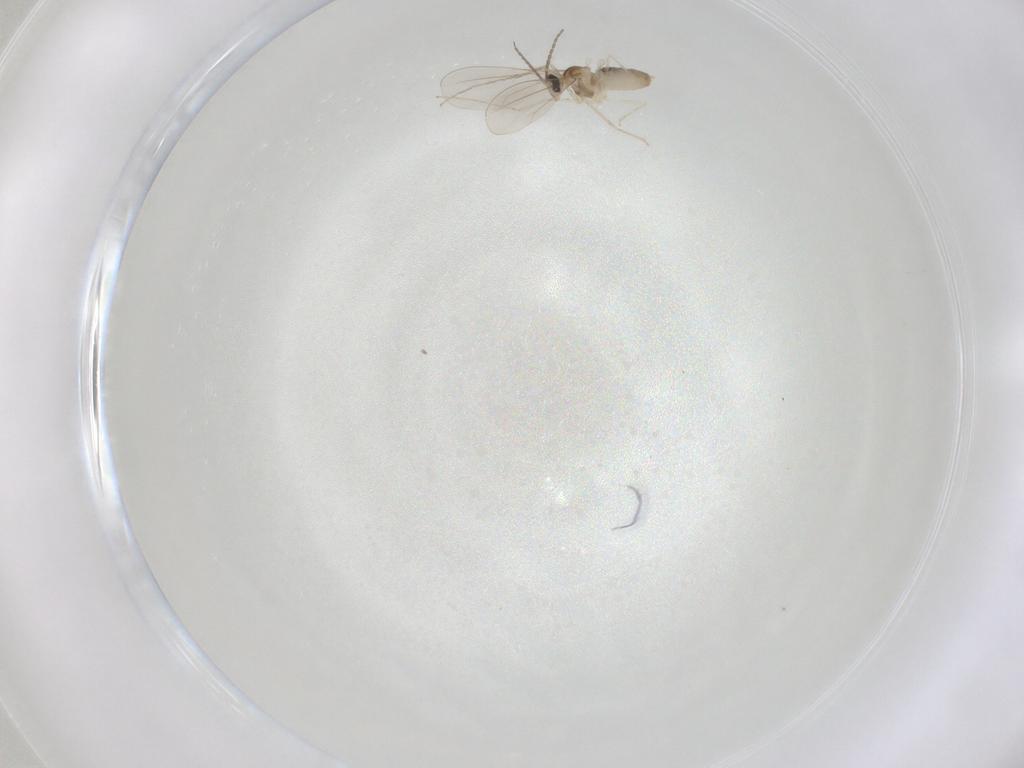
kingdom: Animalia
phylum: Arthropoda
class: Insecta
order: Diptera
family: Cecidomyiidae
